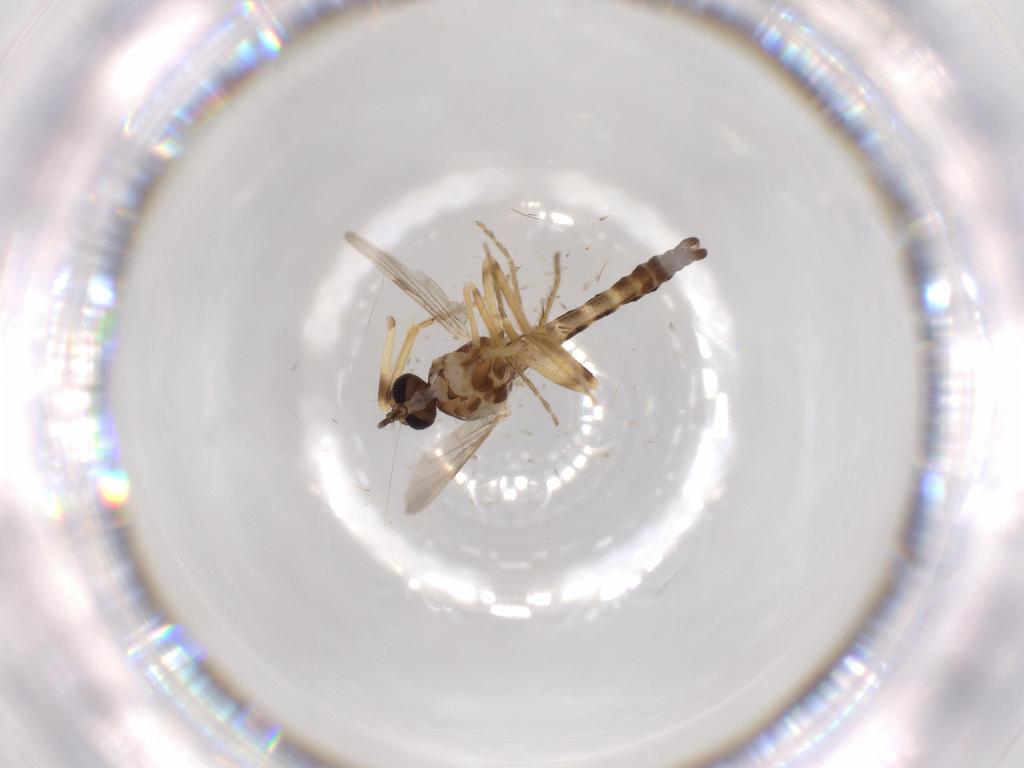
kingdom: Animalia
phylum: Arthropoda
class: Insecta
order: Diptera
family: Ceratopogonidae
